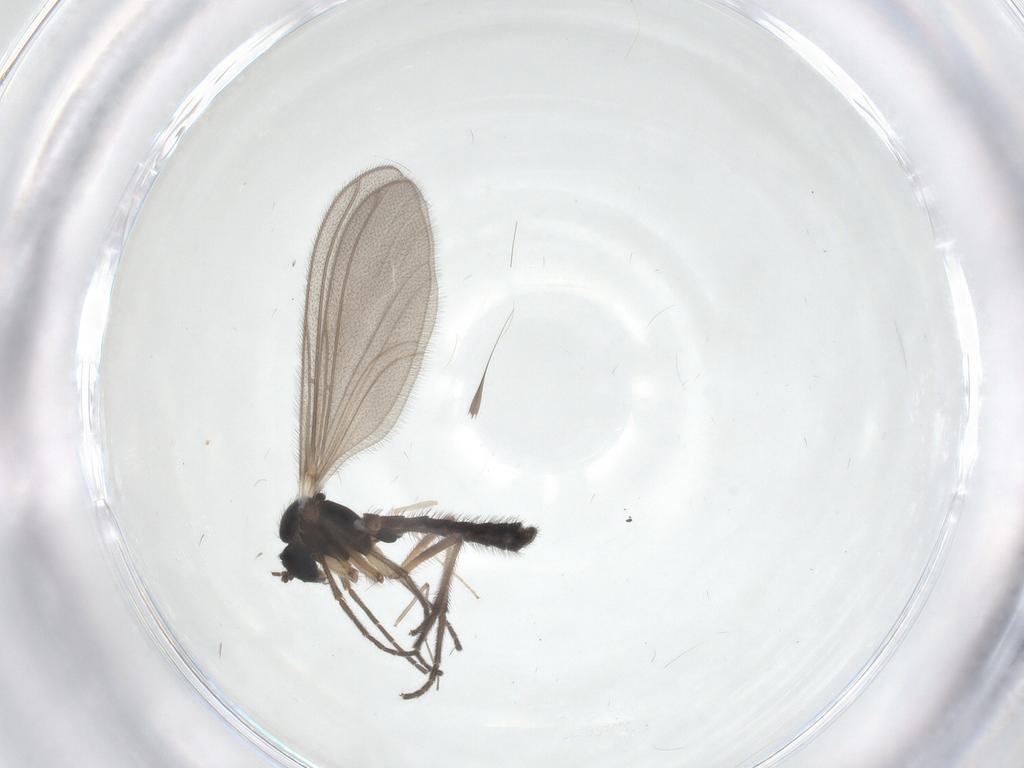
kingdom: Animalia
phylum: Arthropoda
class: Insecta
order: Diptera
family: Mycetophilidae
